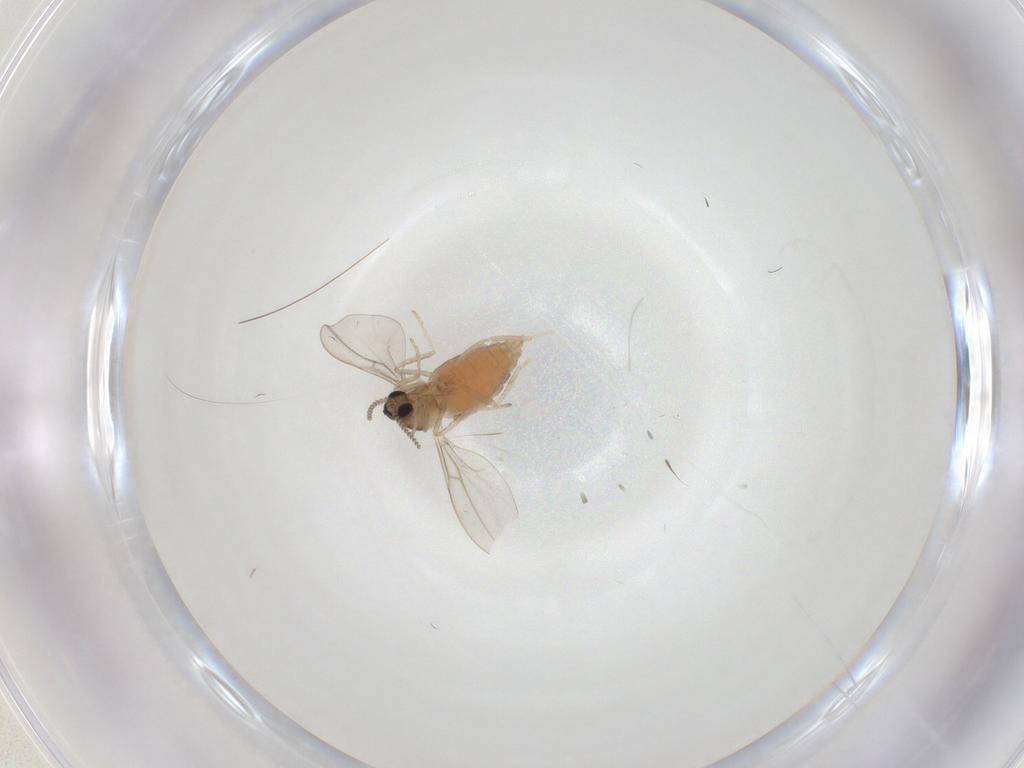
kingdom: Animalia
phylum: Arthropoda
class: Insecta
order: Diptera
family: Cecidomyiidae
